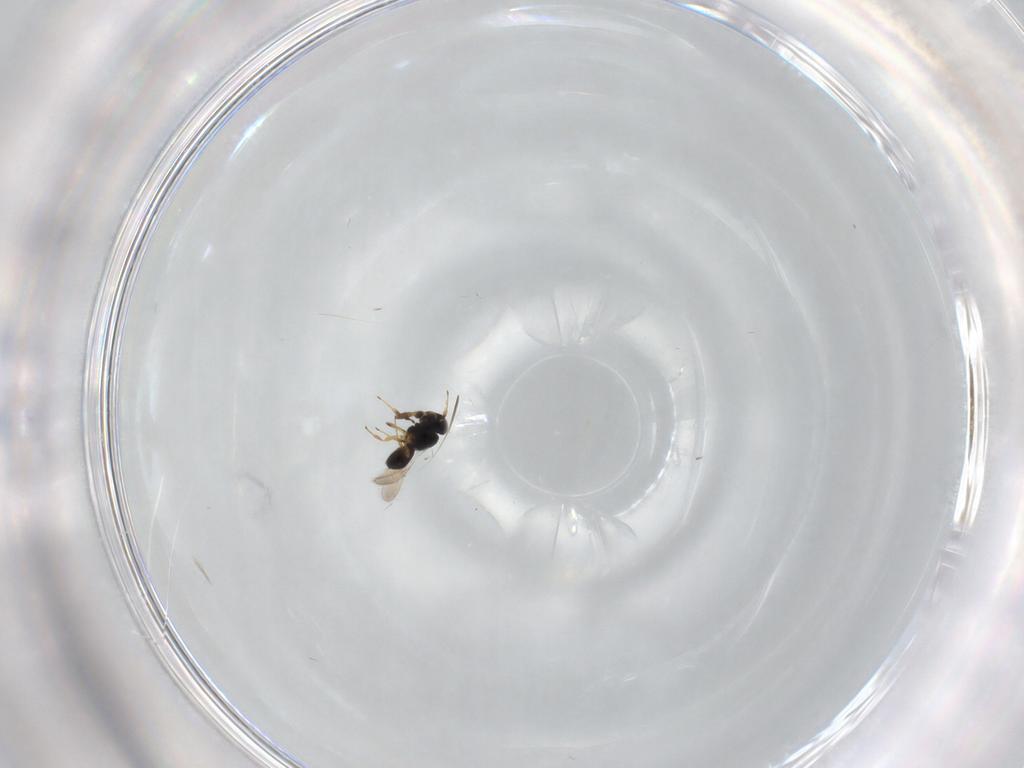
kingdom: Animalia
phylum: Arthropoda
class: Insecta
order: Hymenoptera
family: Scelionidae
